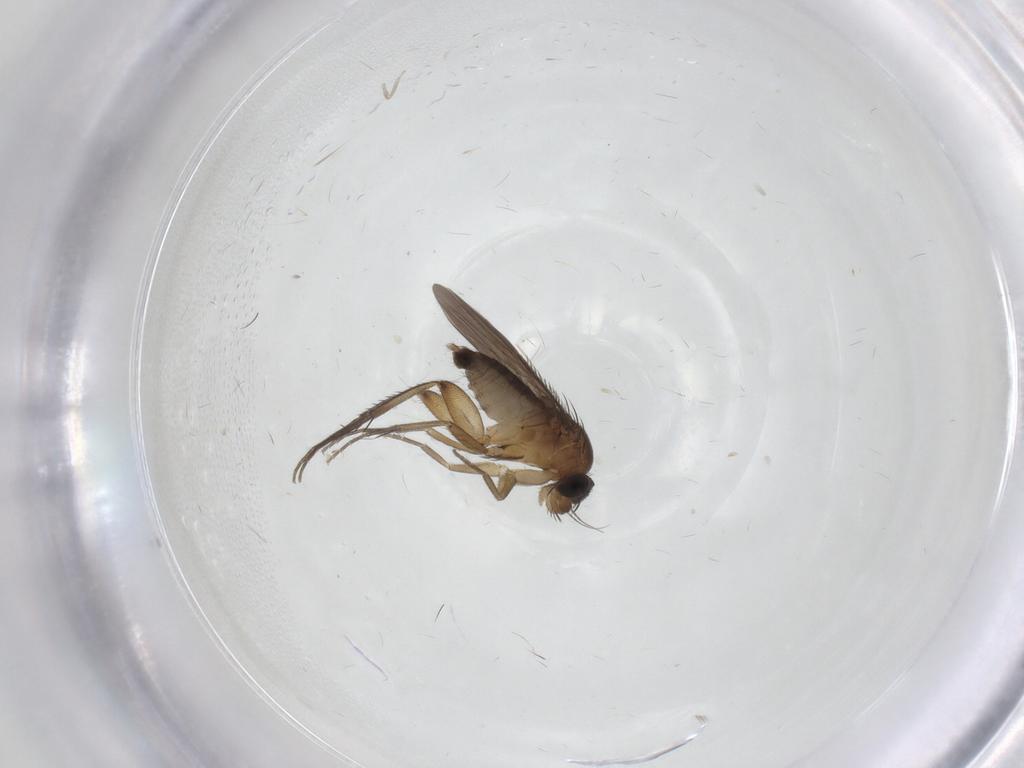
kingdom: Animalia
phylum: Arthropoda
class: Insecta
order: Diptera
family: Phoridae
